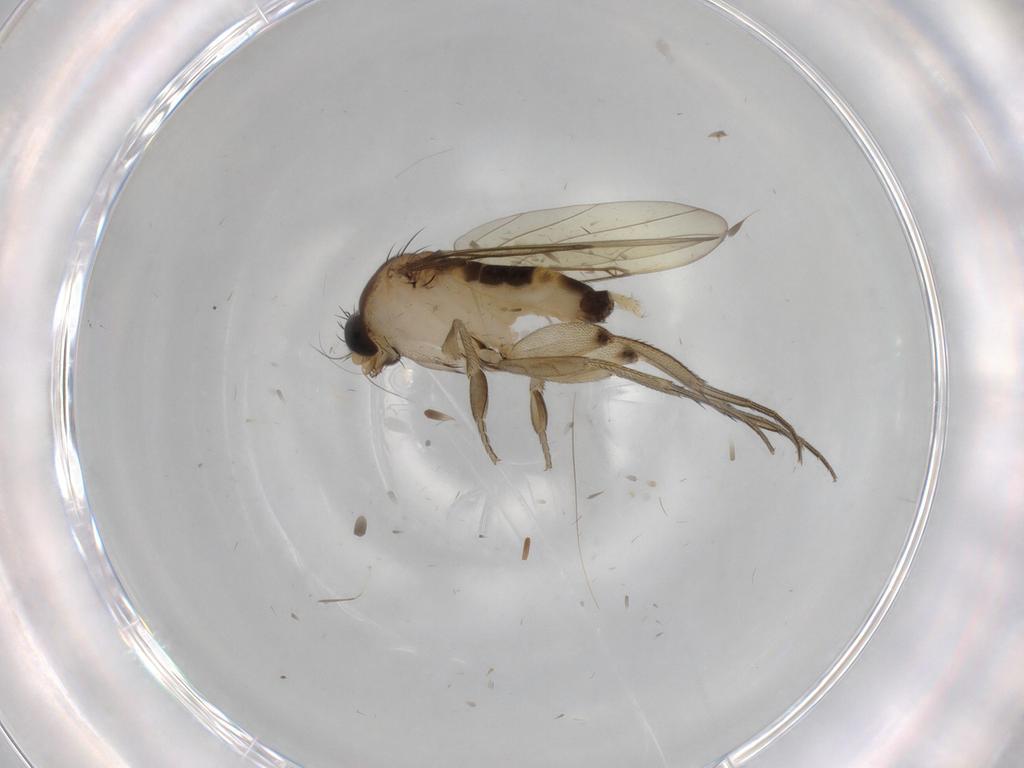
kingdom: Animalia
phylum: Arthropoda
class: Insecta
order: Diptera
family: Phoridae
